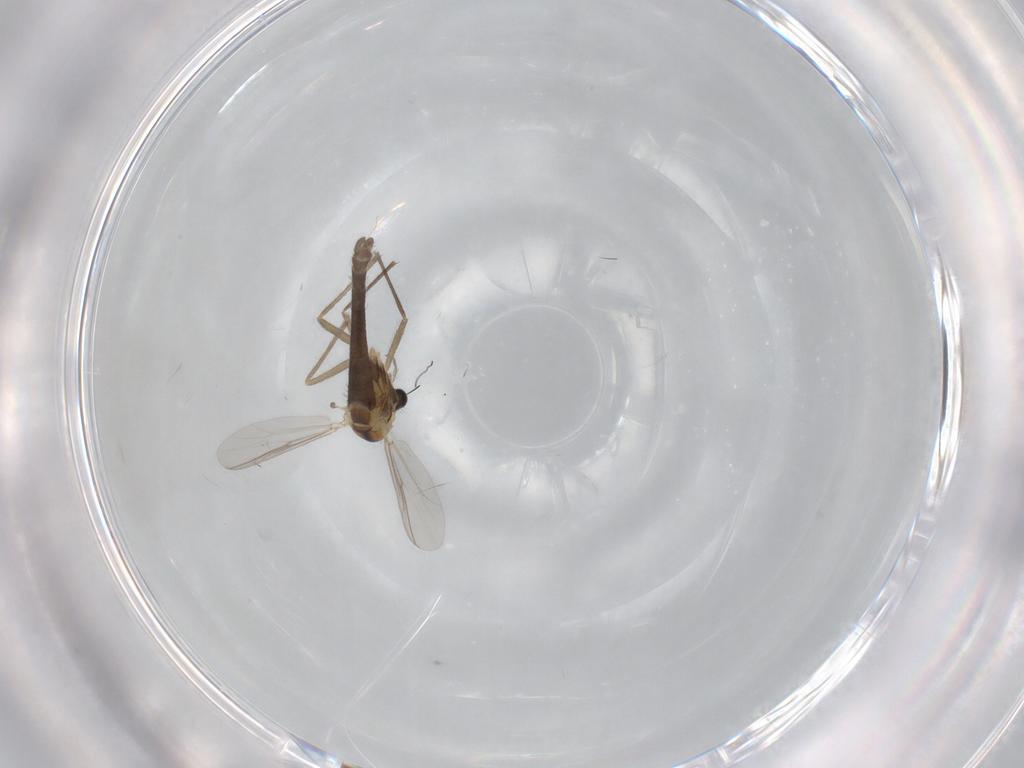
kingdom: Animalia
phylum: Arthropoda
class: Insecta
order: Diptera
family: Chironomidae
